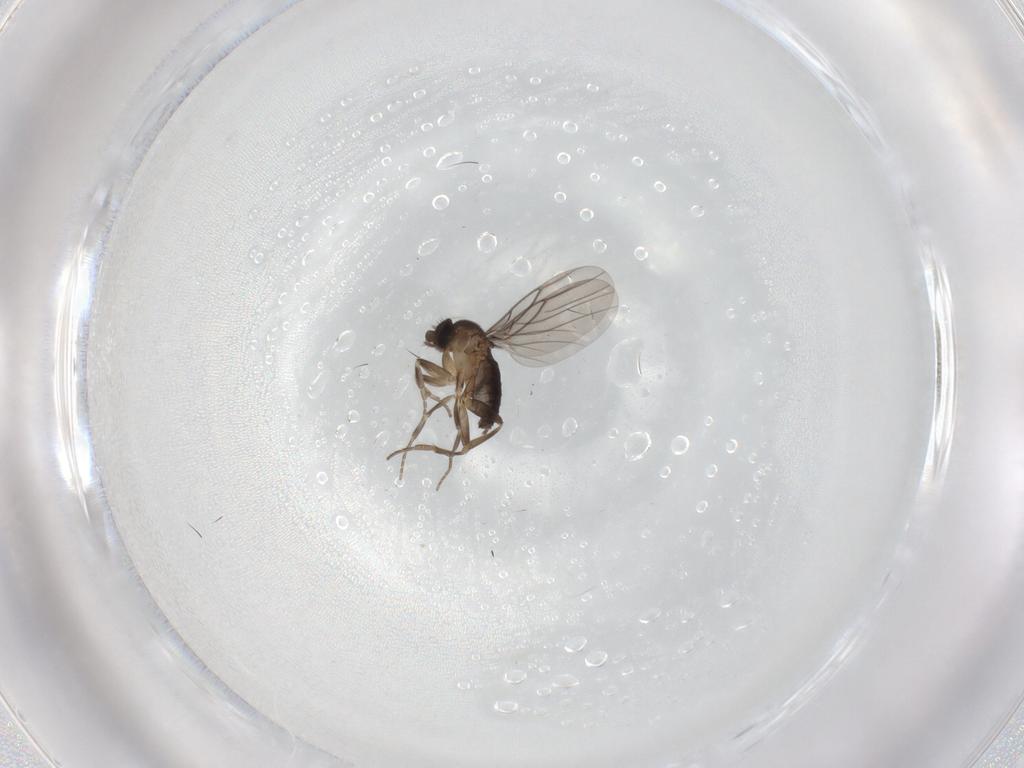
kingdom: Animalia
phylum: Arthropoda
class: Insecta
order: Diptera
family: Phoridae
